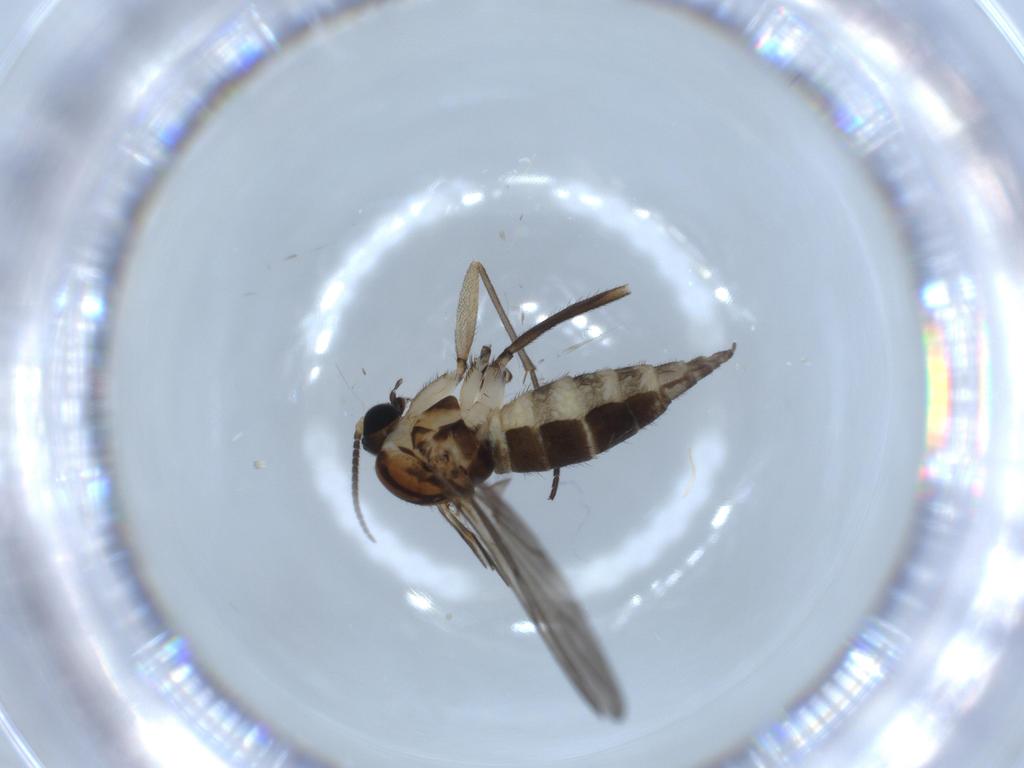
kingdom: Animalia
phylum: Arthropoda
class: Insecta
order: Diptera
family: Sciaridae
